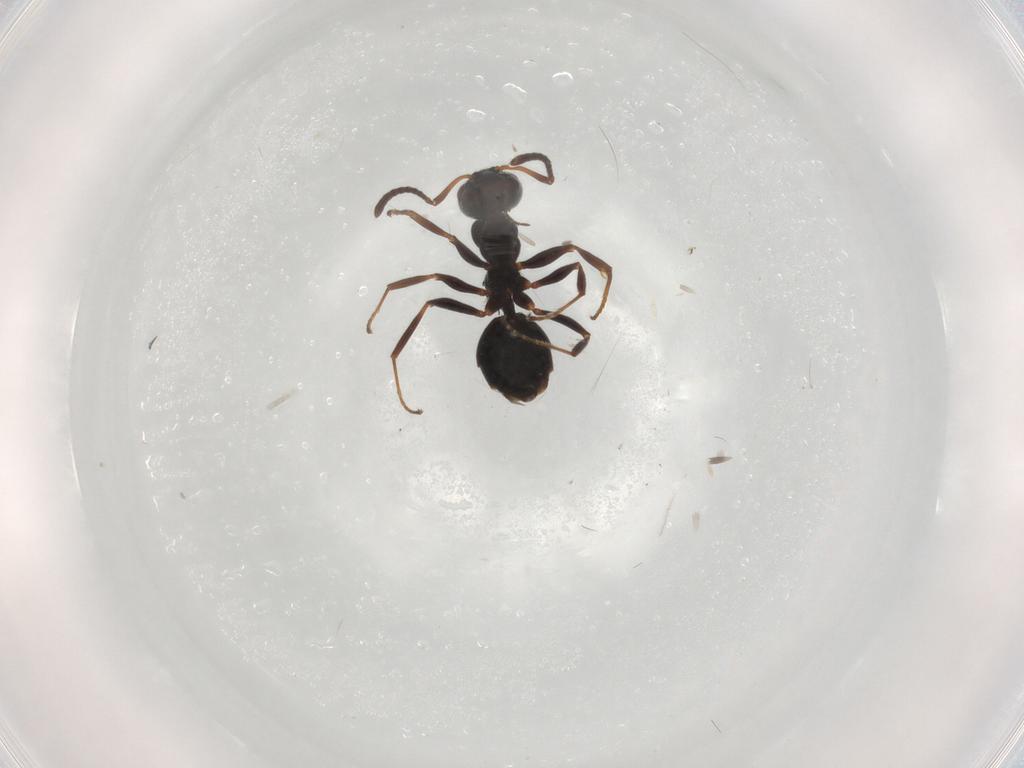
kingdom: Animalia
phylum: Arthropoda
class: Insecta
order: Hymenoptera
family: Formicidae
